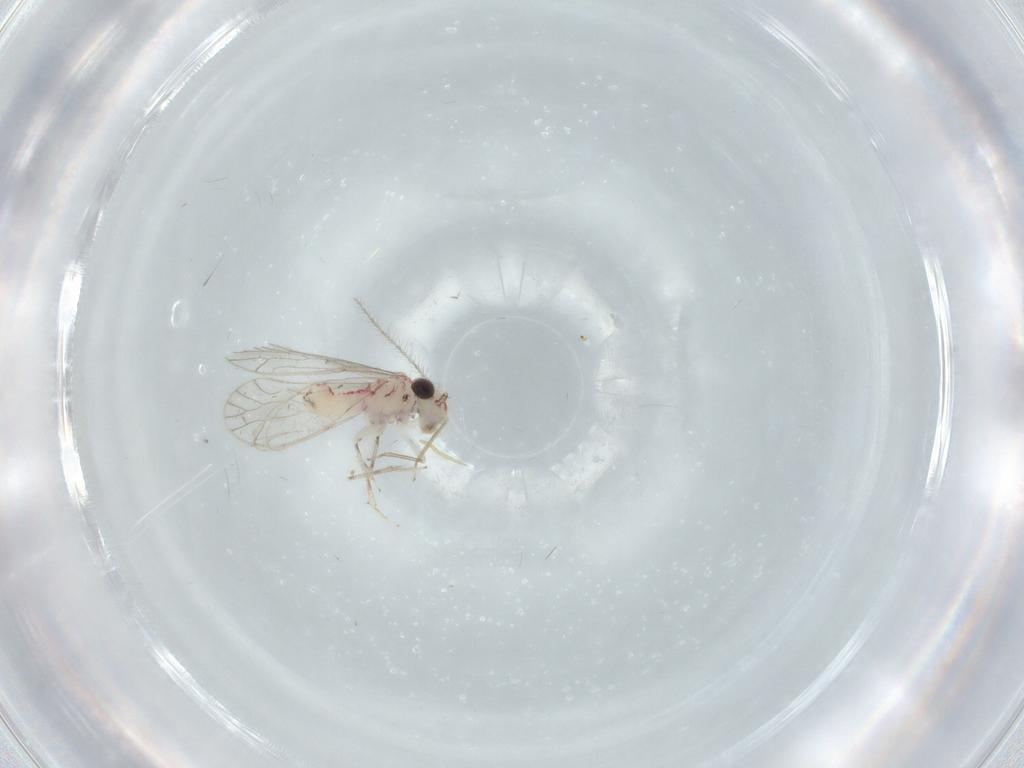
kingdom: Animalia
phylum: Arthropoda
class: Insecta
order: Psocodea
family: Caeciliusidae
